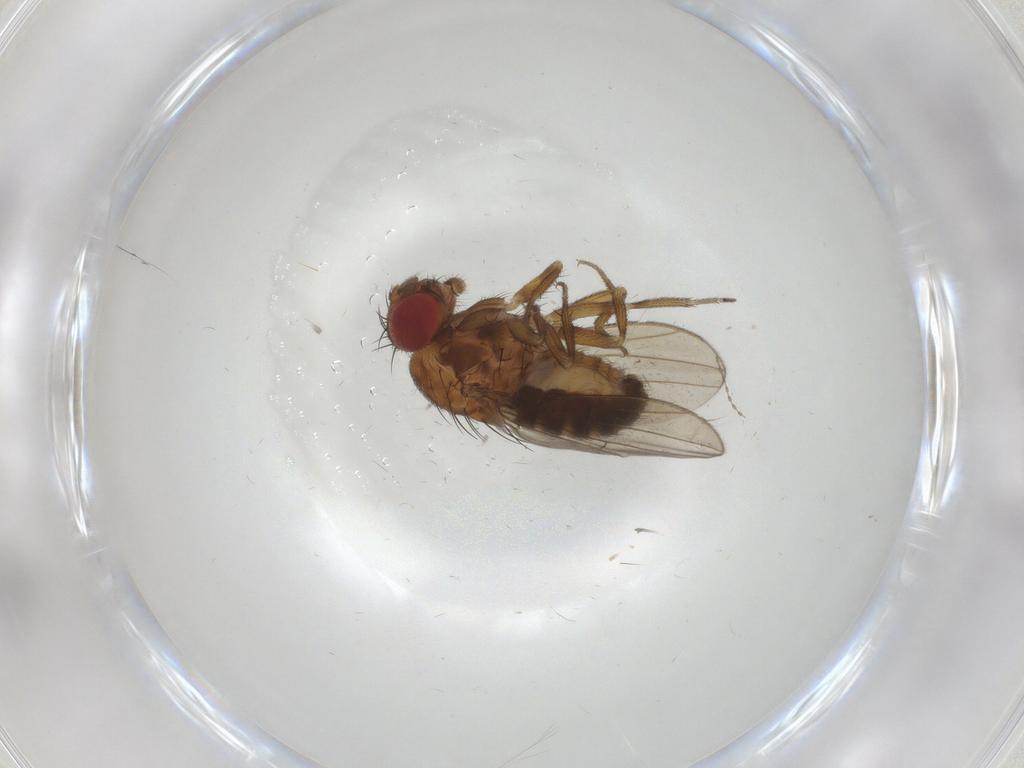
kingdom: Animalia
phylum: Arthropoda
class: Insecta
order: Diptera
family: Drosophilidae
